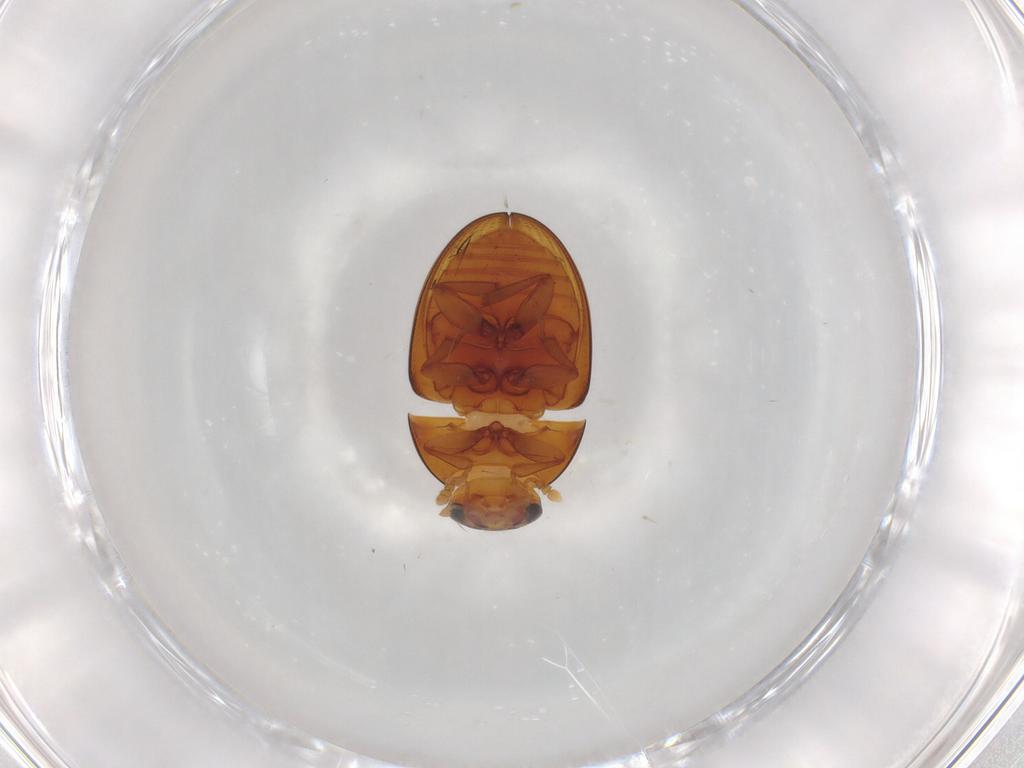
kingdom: Animalia
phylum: Arthropoda
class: Insecta
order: Coleoptera
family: Phalacridae
